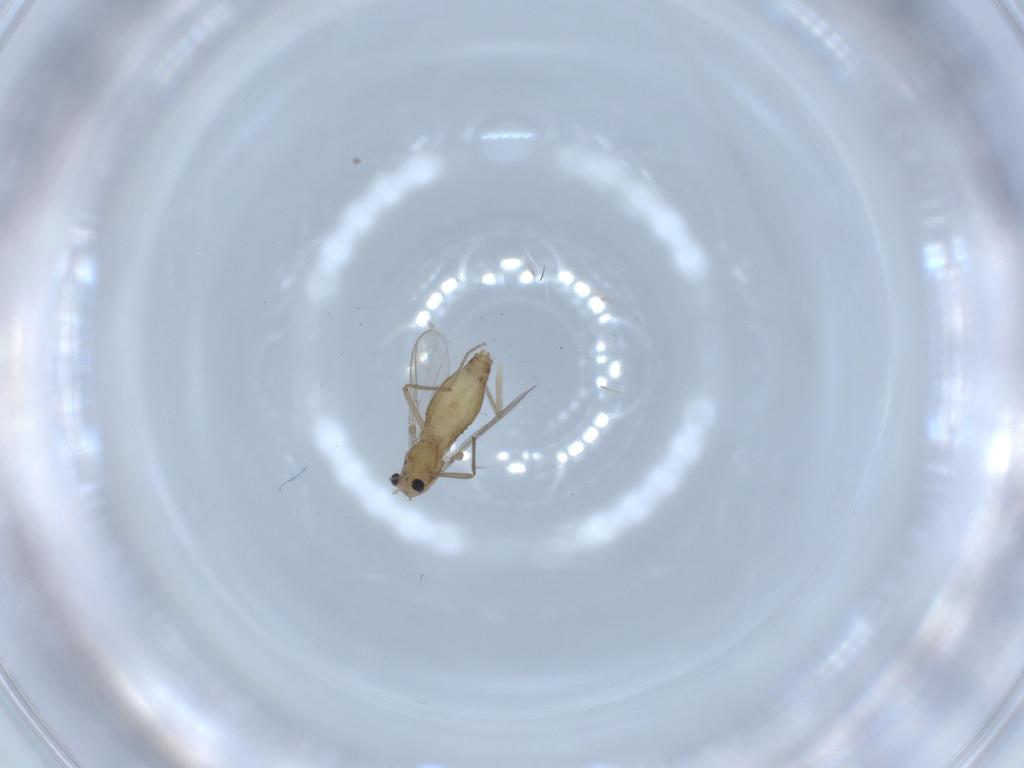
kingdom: Animalia
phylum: Arthropoda
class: Insecta
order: Diptera
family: Chironomidae
